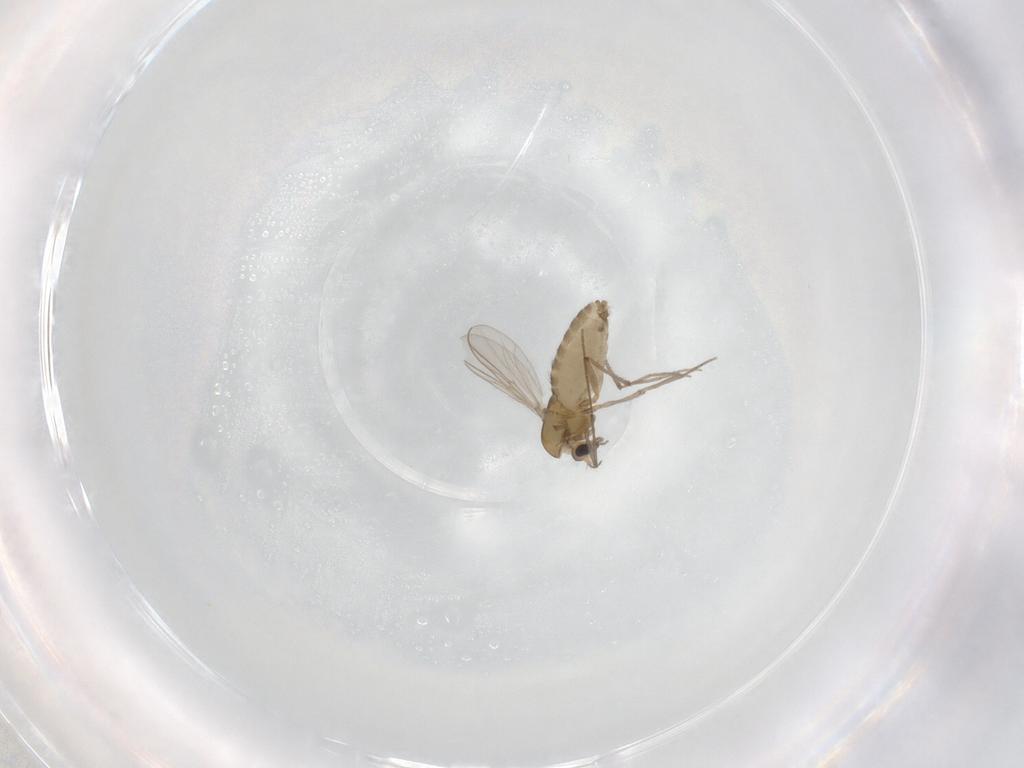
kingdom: Animalia
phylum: Arthropoda
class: Insecta
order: Diptera
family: Chironomidae
